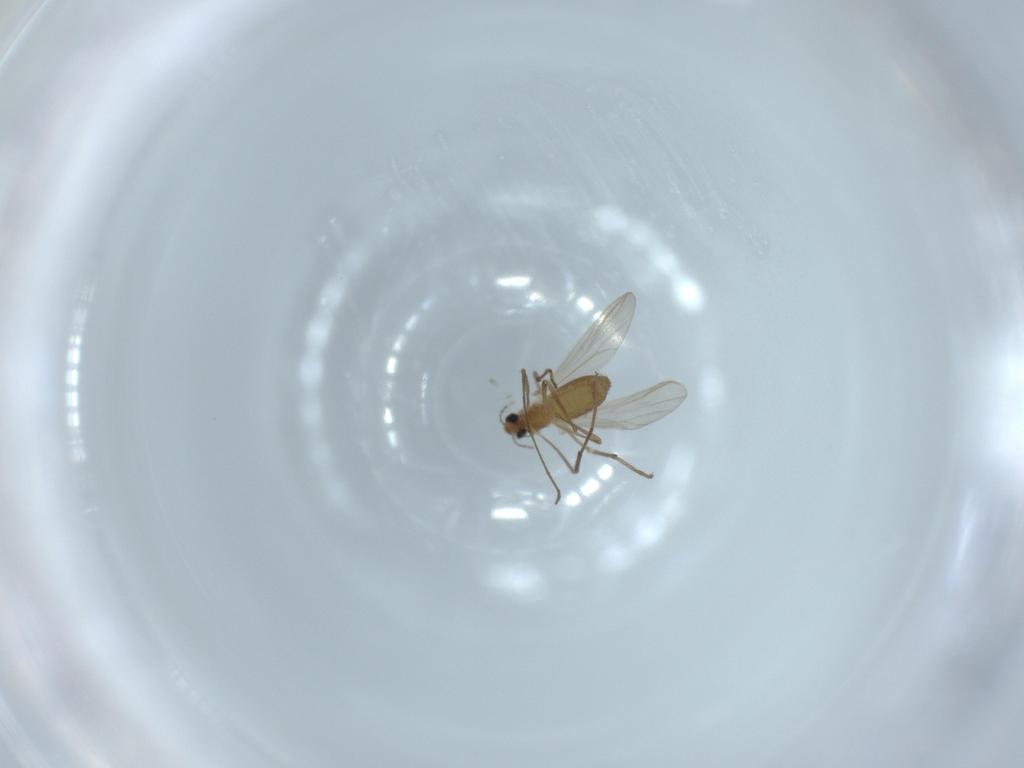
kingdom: Animalia
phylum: Arthropoda
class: Insecta
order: Diptera
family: Chironomidae
